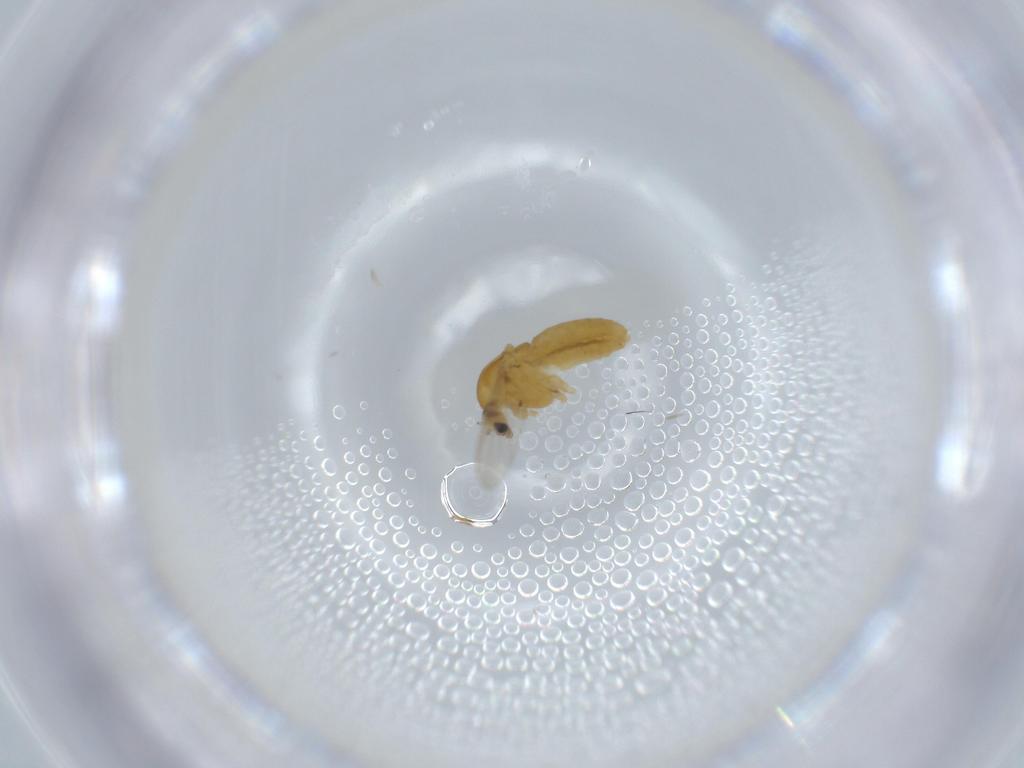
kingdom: Animalia
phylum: Arthropoda
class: Insecta
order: Diptera
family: Chironomidae
